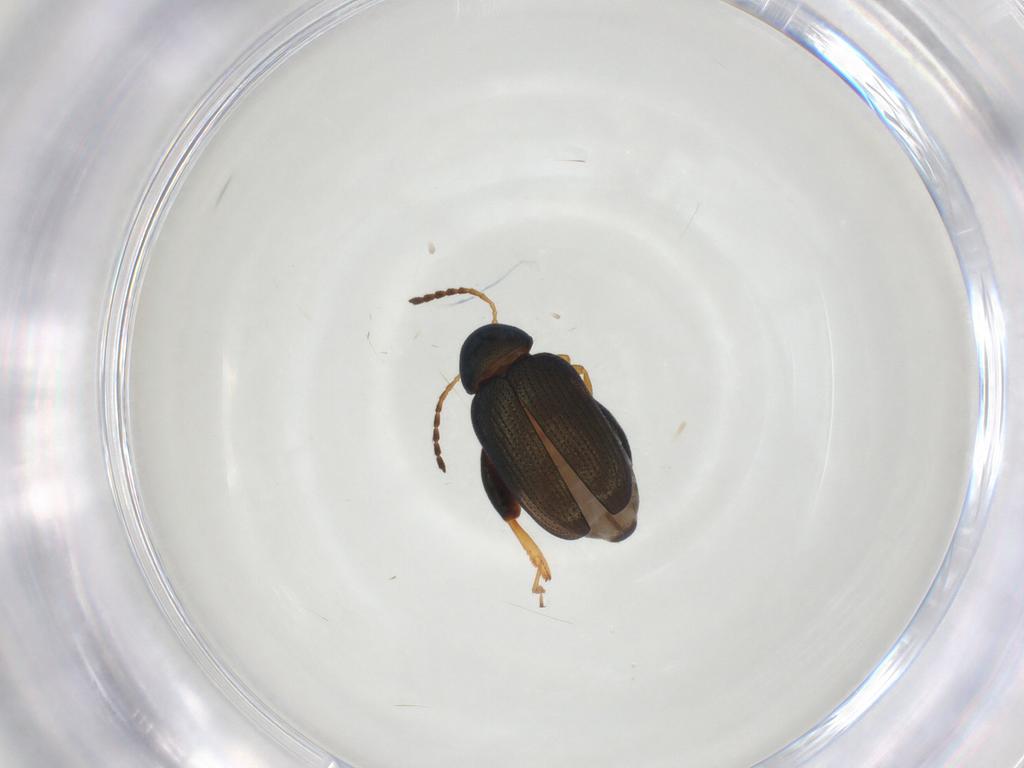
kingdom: Animalia
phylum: Arthropoda
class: Insecta
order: Coleoptera
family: Chrysomelidae
